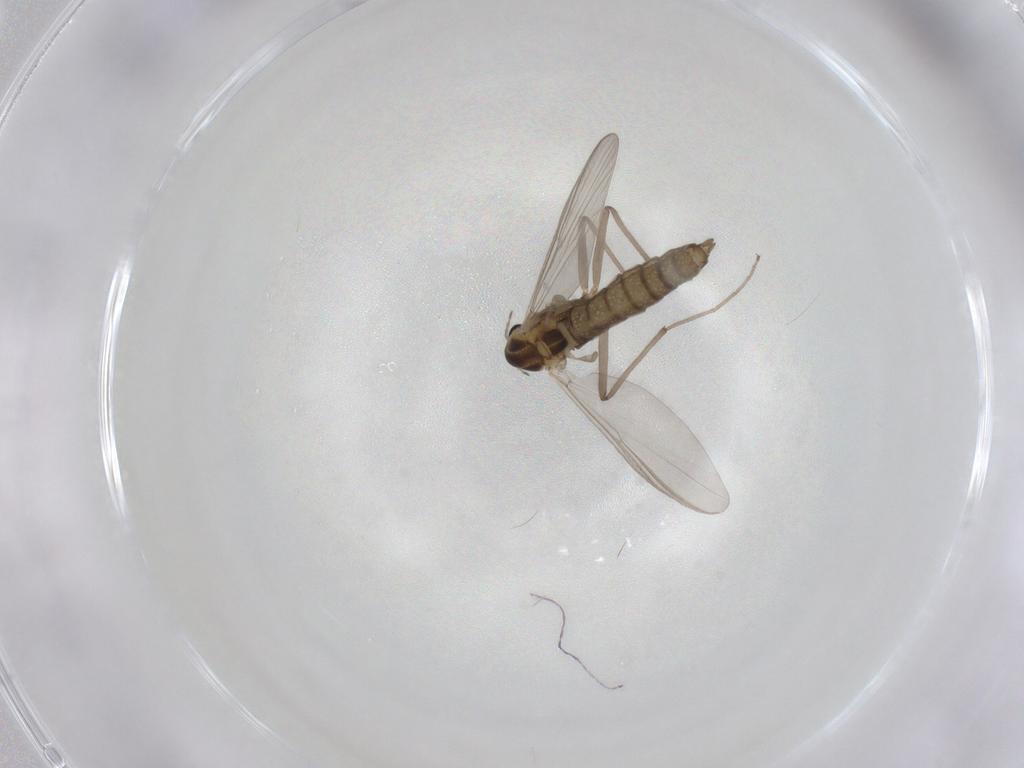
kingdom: Animalia
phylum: Arthropoda
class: Insecta
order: Diptera
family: Chironomidae
